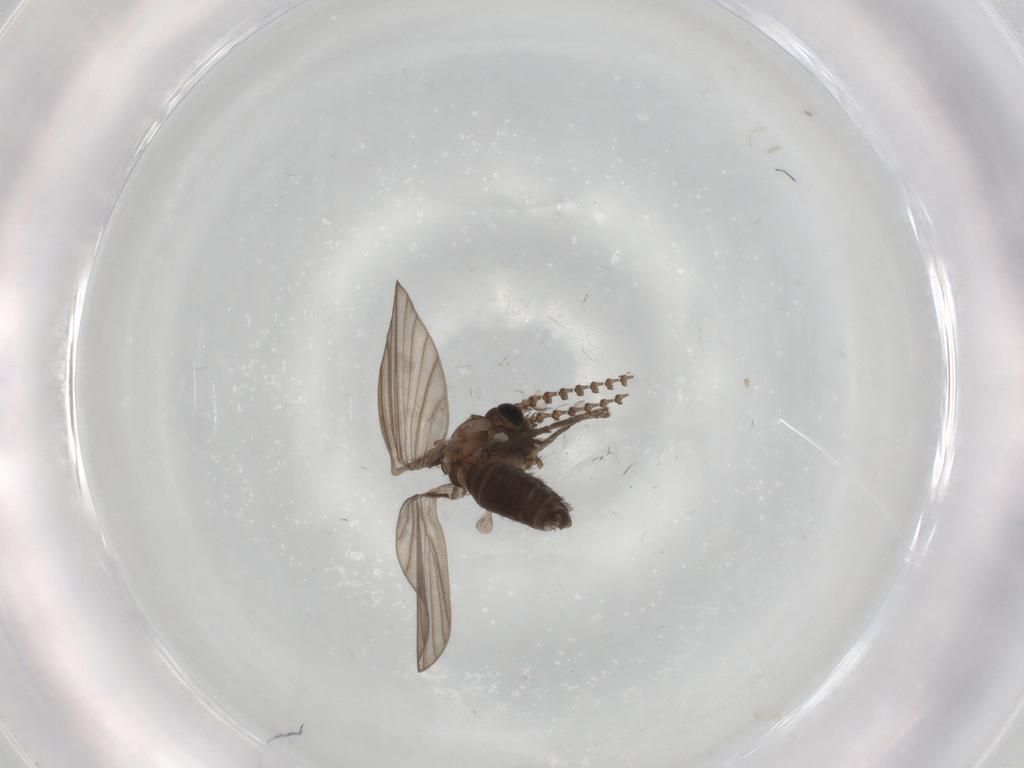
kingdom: Animalia
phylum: Arthropoda
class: Insecta
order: Diptera
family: Psychodidae
